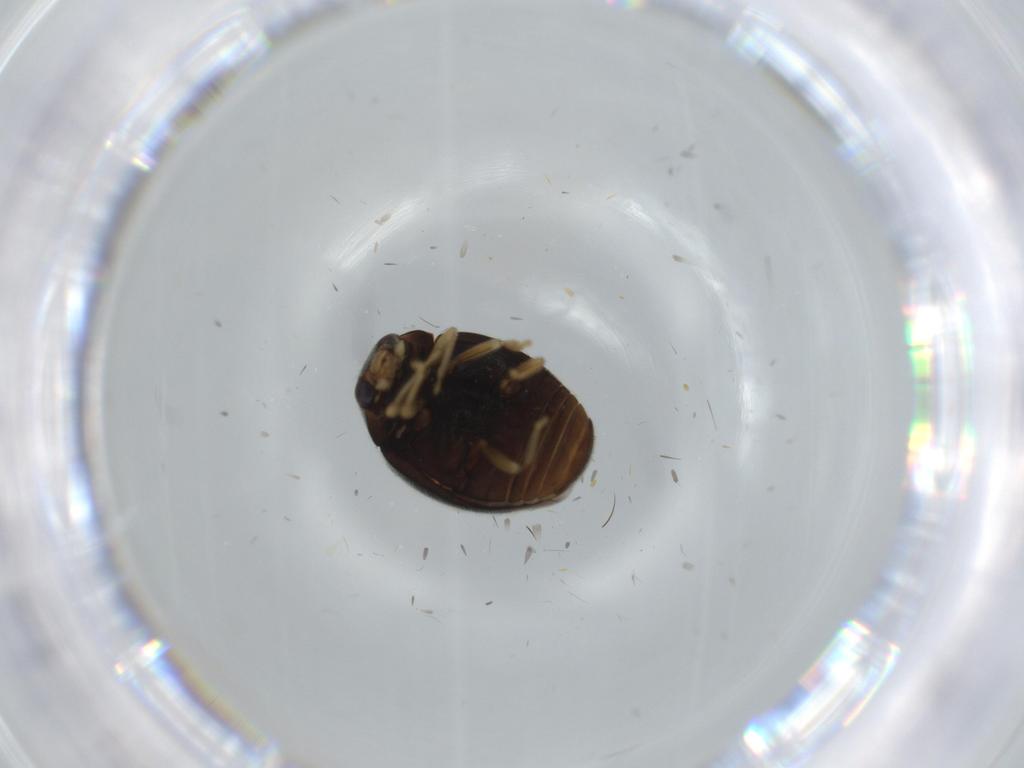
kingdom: Animalia
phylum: Arthropoda
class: Insecta
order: Coleoptera
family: Coccinellidae
